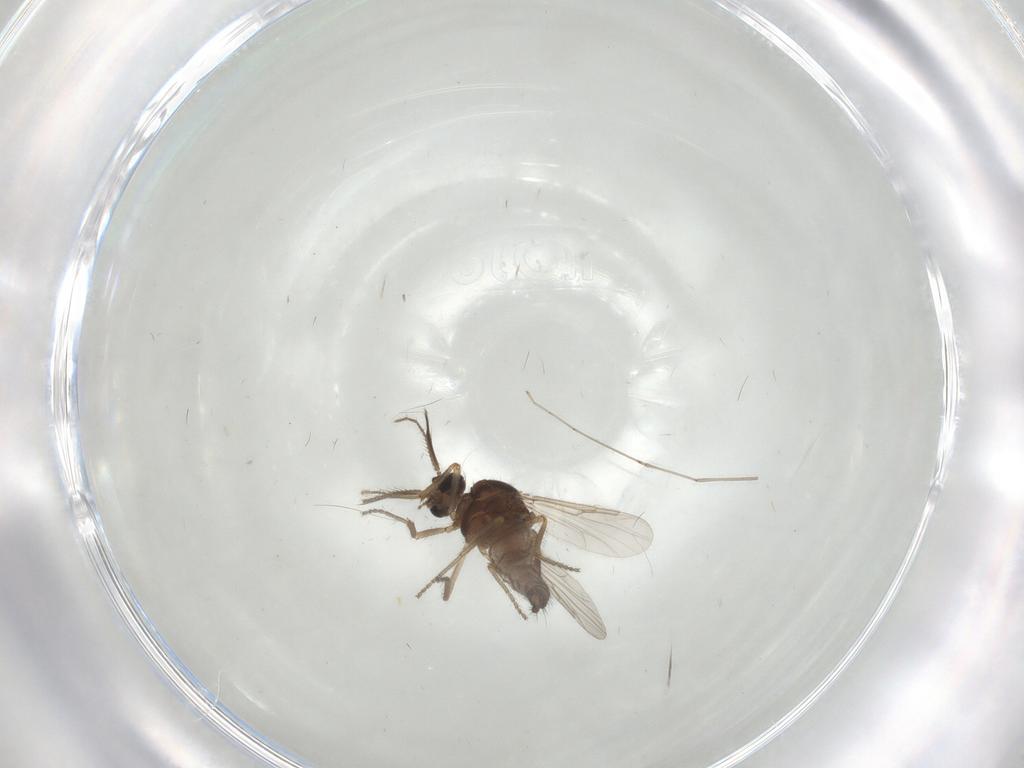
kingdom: Animalia
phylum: Arthropoda
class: Insecta
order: Diptera
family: Ceratopogonidae
